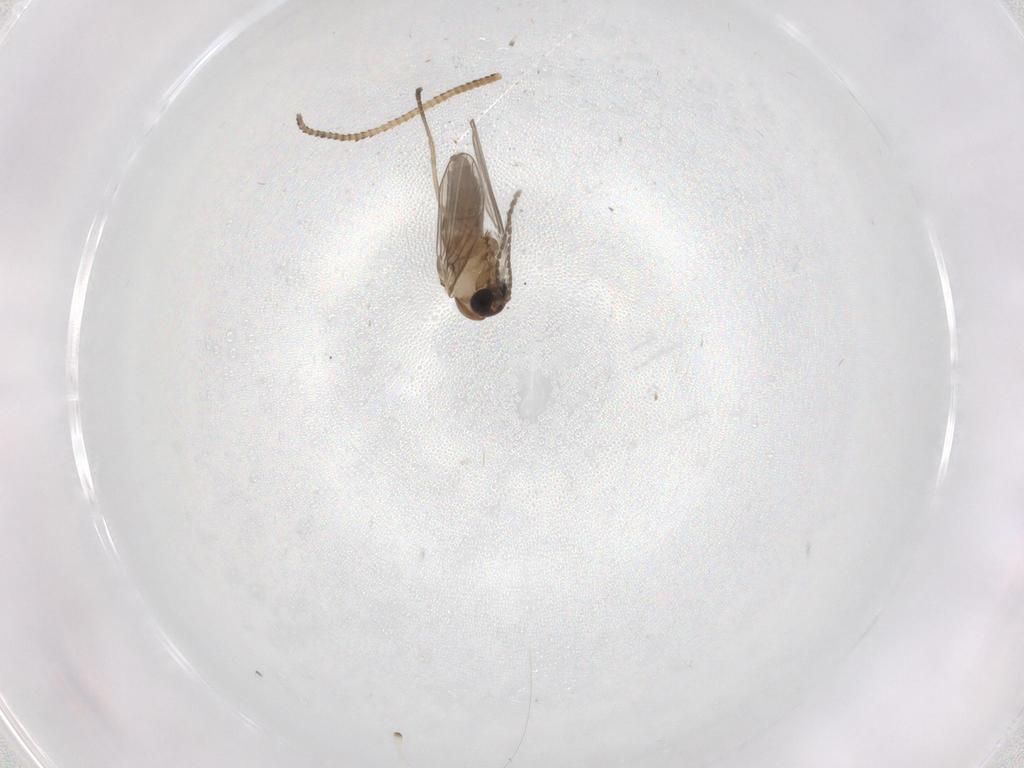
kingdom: Animalia
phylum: Arthropoda
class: Insecta
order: Diptera
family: Psychodidae
